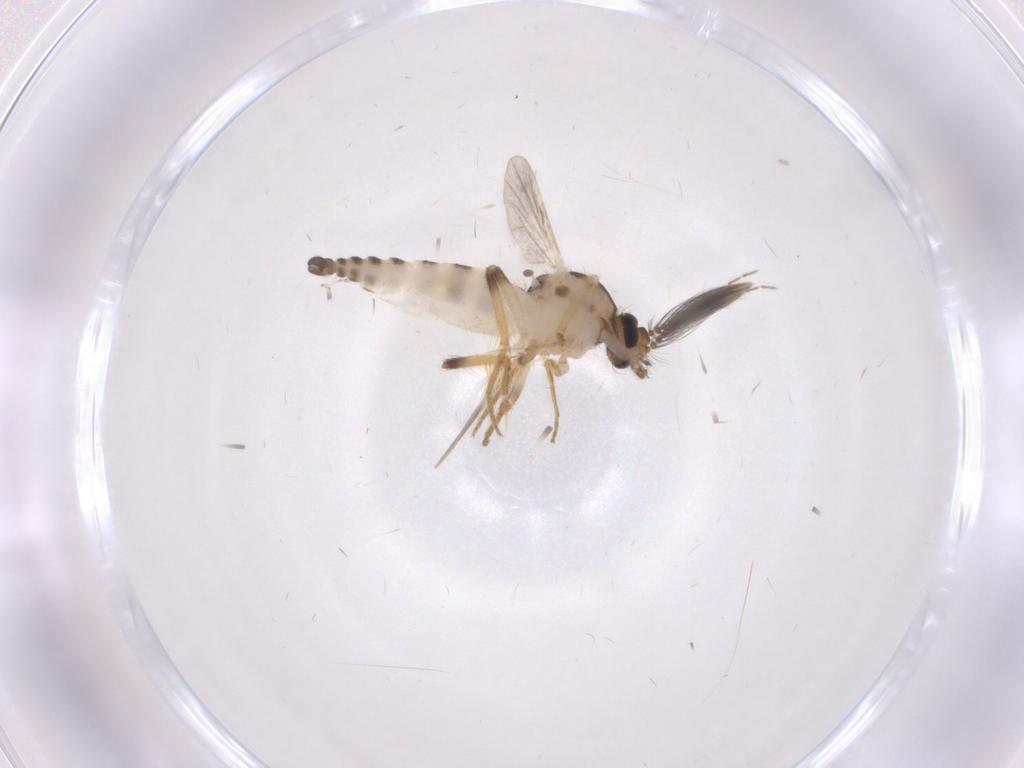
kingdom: Animalia
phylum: Arthropoda
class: Insecta
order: Diptera
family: Ceratopogonidae
